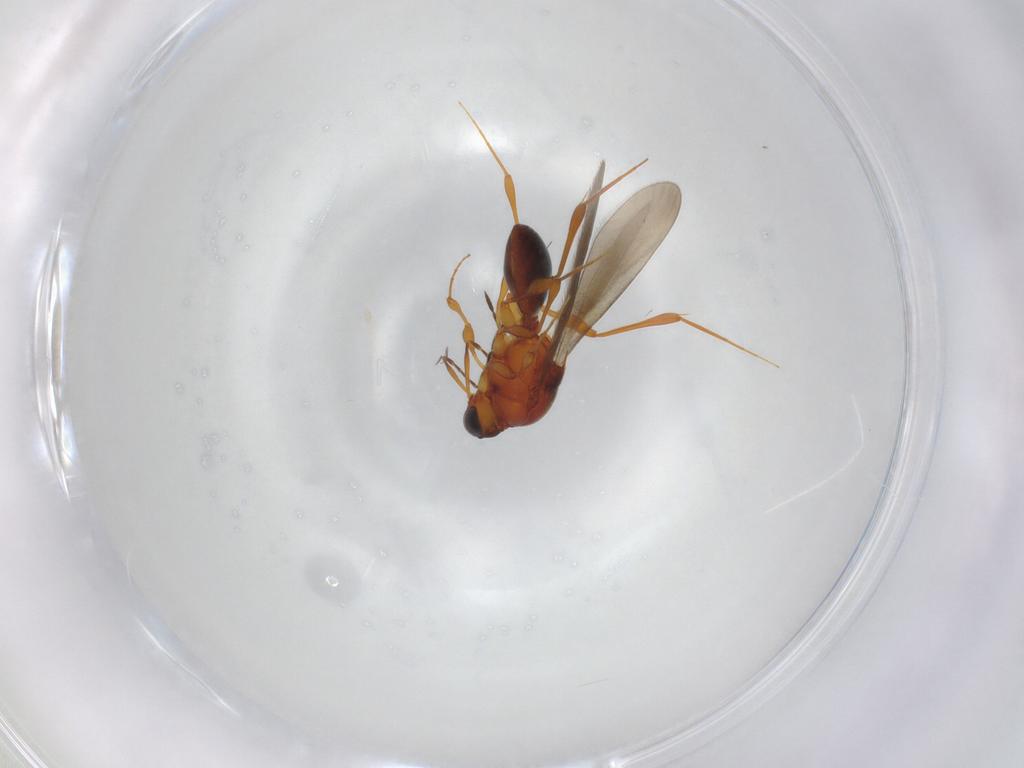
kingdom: Animalia
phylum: Arthropoda
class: Insecta
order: Hymenoptera
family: Platygastridae
